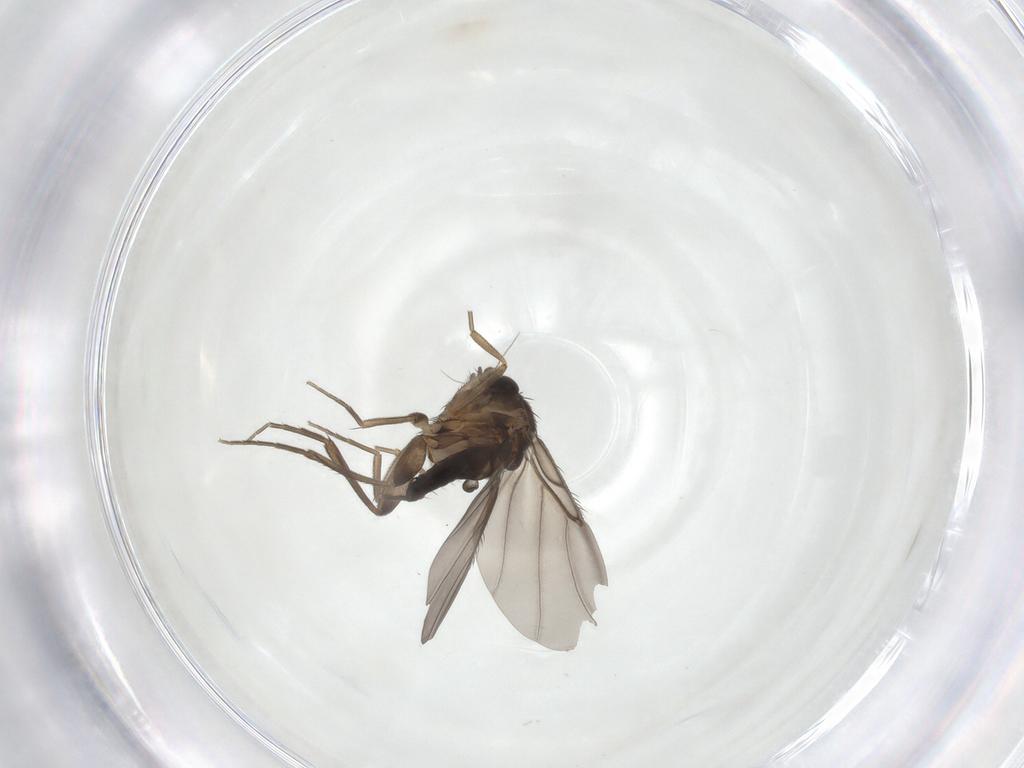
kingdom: Animalia
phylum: Arthropoda
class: Insecta
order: Diptera
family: Phoridae
